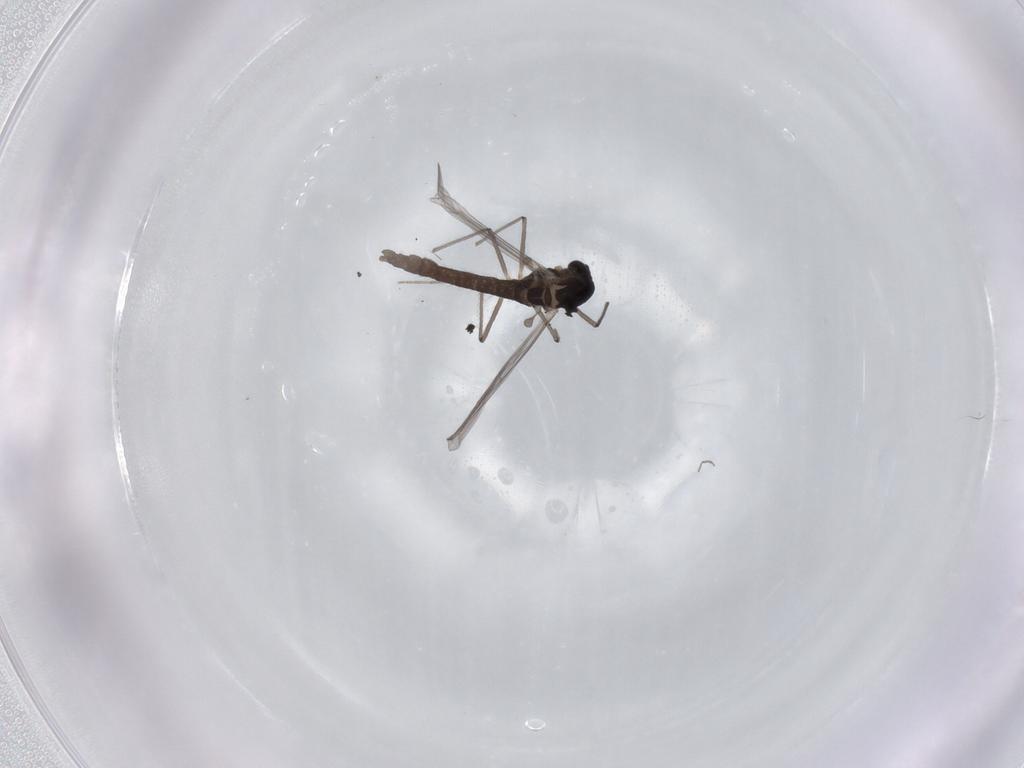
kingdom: Animalia
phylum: Arthropoda
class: Insecta
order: Diptera
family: Chironomidae
